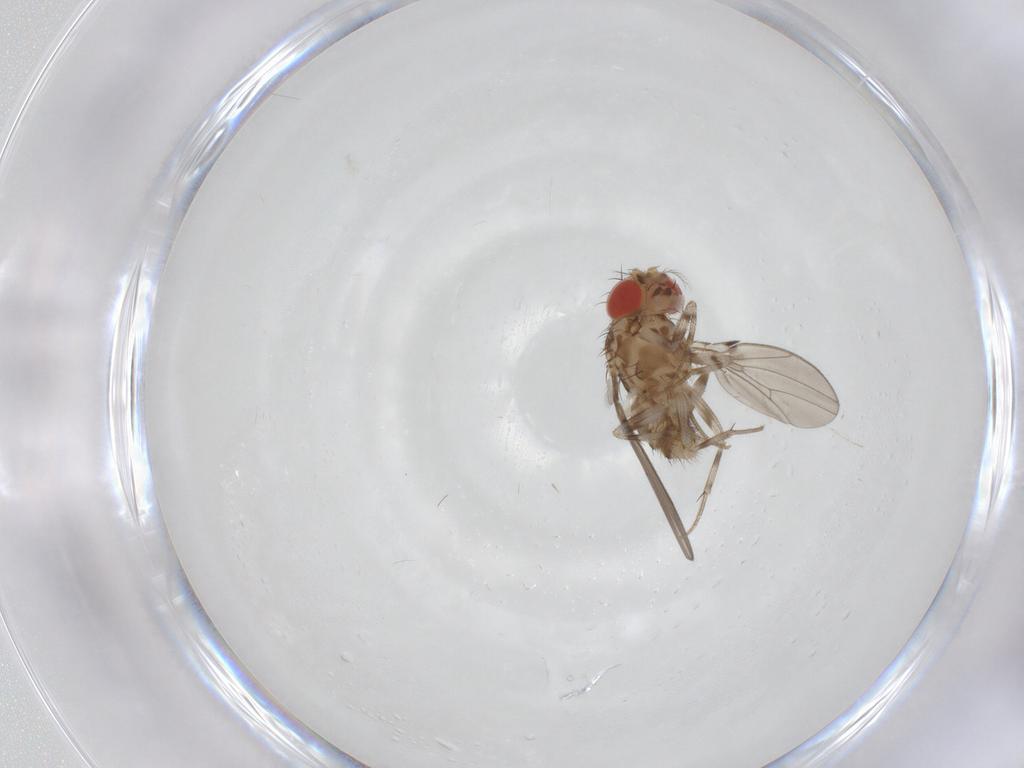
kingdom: Animalia
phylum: Arthropoda
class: Insecta
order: Diptera
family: Drosophilidae
